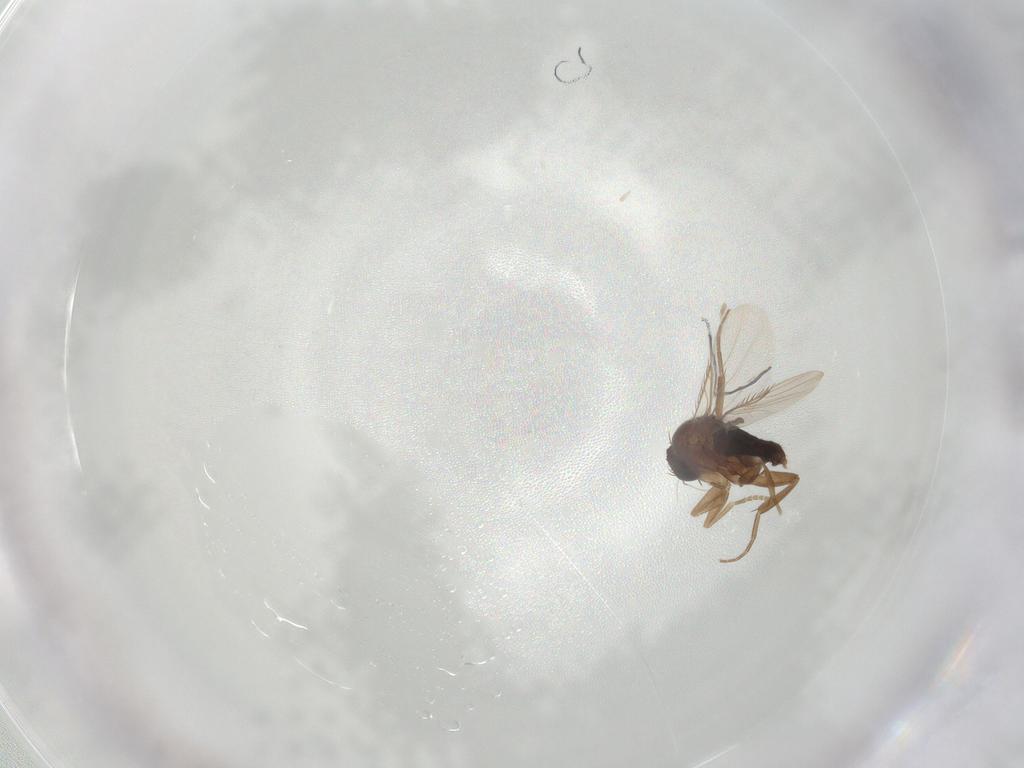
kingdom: Animalia
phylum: Arthropoda
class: Insecta
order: Diptera
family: Phoridae
